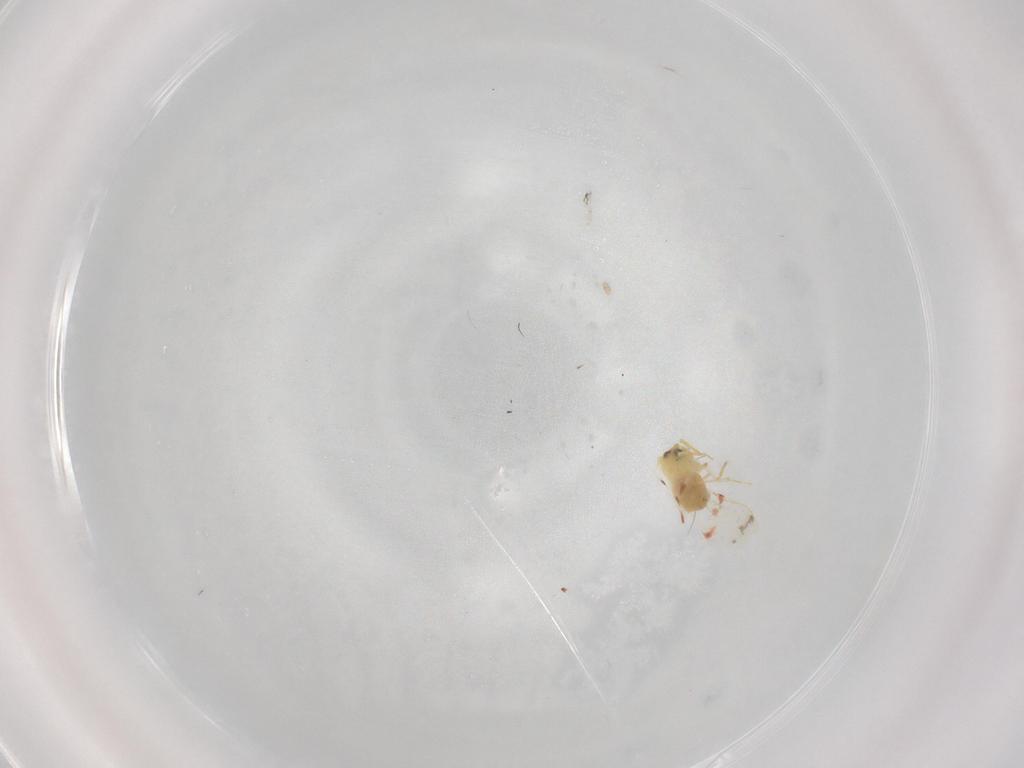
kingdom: Animalia
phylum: Arthropoda
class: Insecta
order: Hemiptera
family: Aleyrodidae
